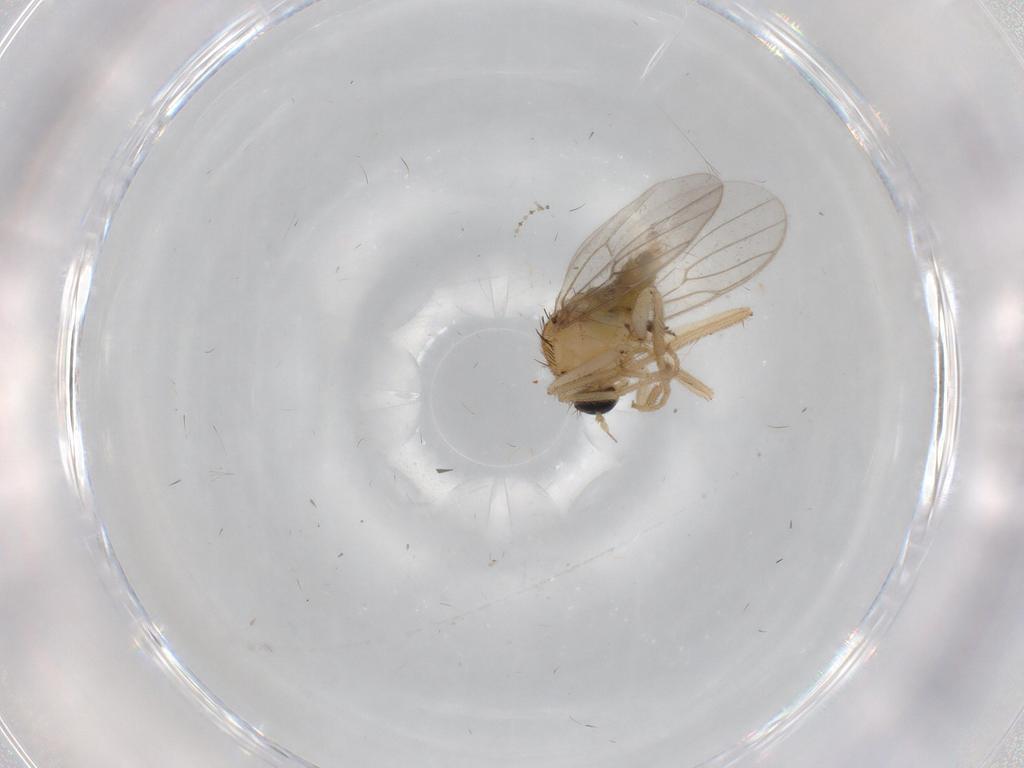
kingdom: Animalia
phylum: Arthropoda
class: Insecta
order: Diptera
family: Hybotidae
